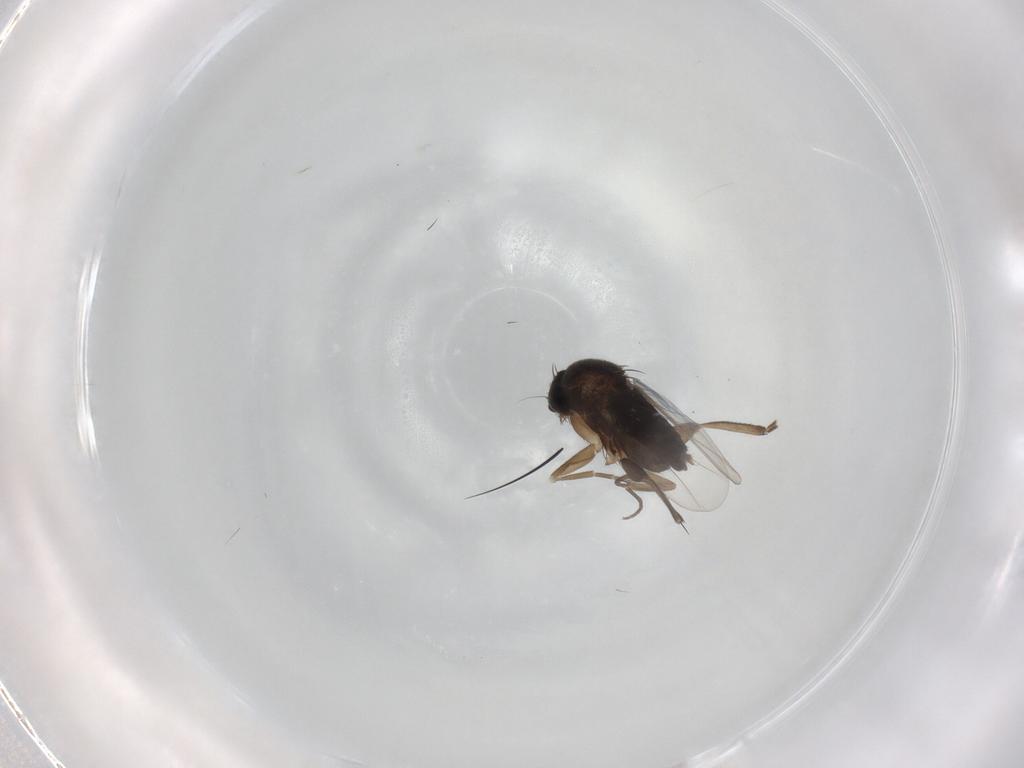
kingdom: Animalia
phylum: Arthropoda
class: Insecta
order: Diptera
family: Phoridae
